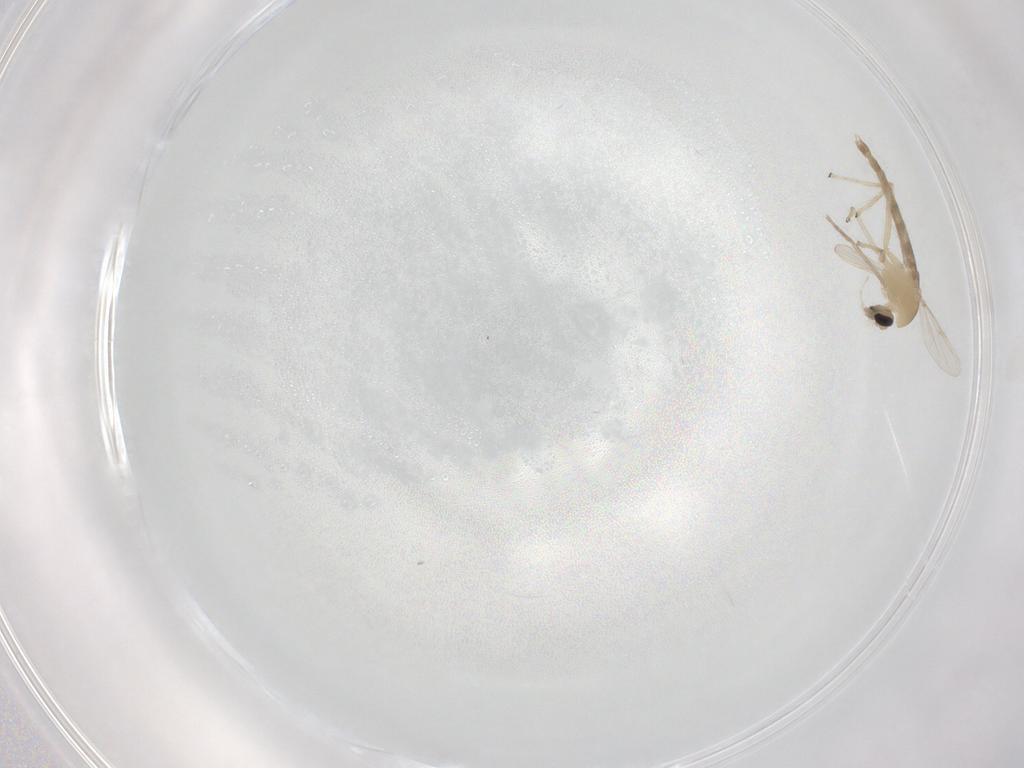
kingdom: Animalia
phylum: Arthropoda
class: Insecta
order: Diptera
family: Chironomidae
